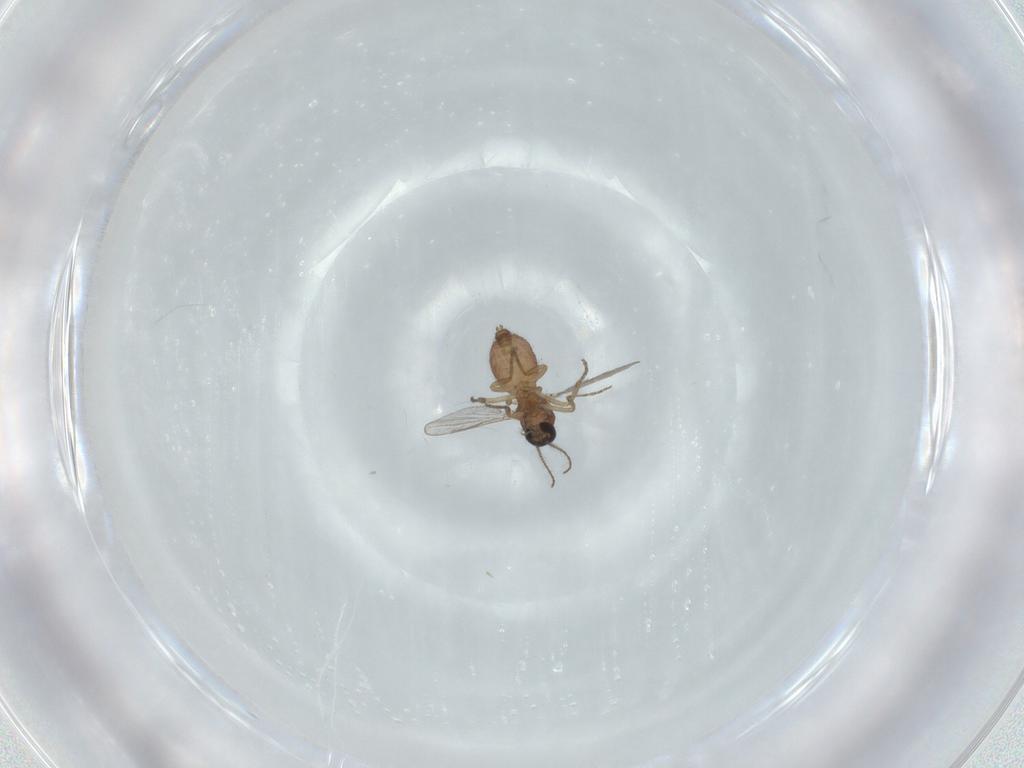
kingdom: Animalia
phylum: Arthropoda
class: Insecta
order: Diptera
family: Ceratopogonidae
